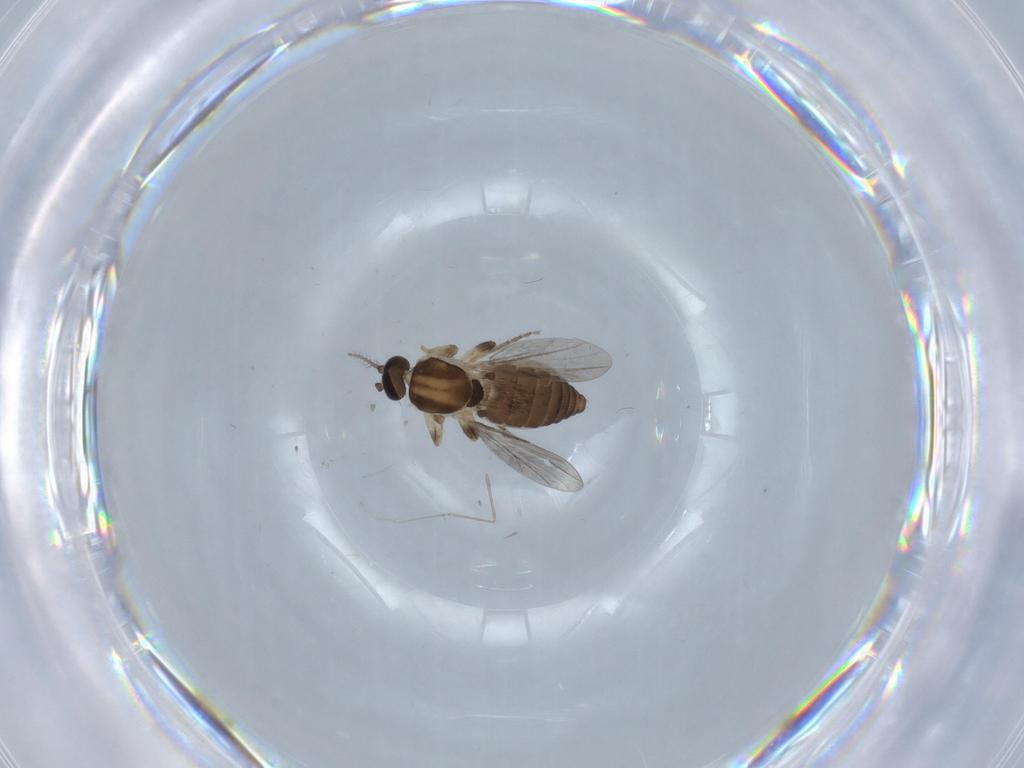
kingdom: Animalia
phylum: Arthropoda
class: Insecta
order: Diptera
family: Ceratopogonidae
